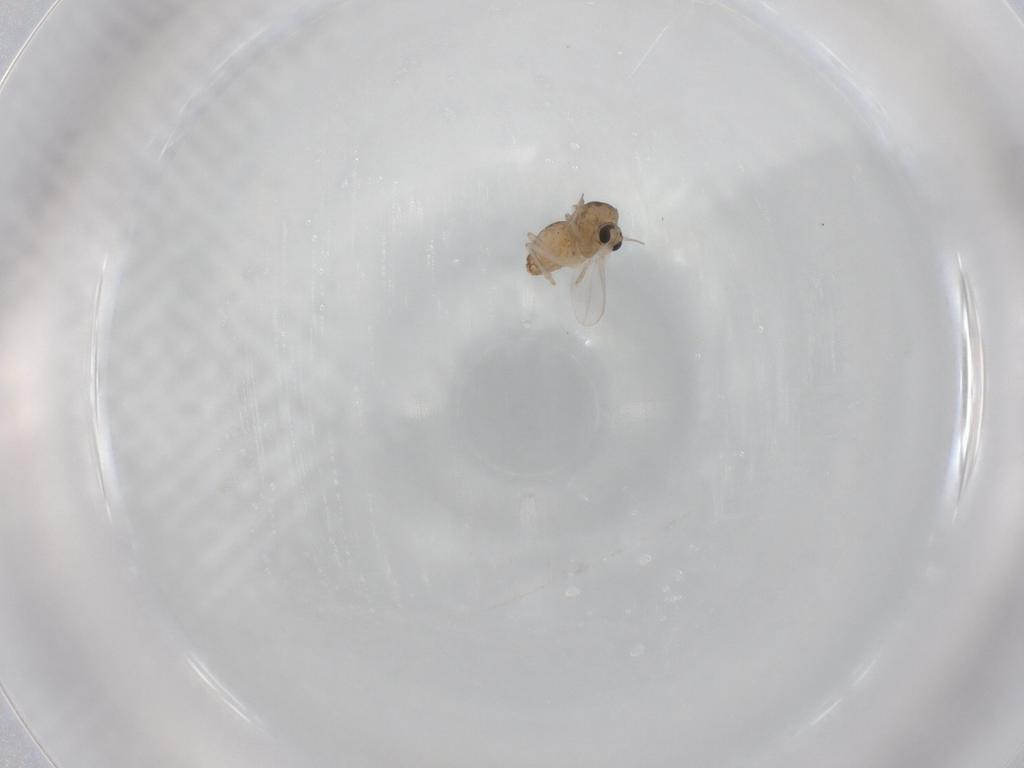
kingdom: Animalia
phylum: Arthropoda
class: Insecta
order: Diptera
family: Chironomidae
